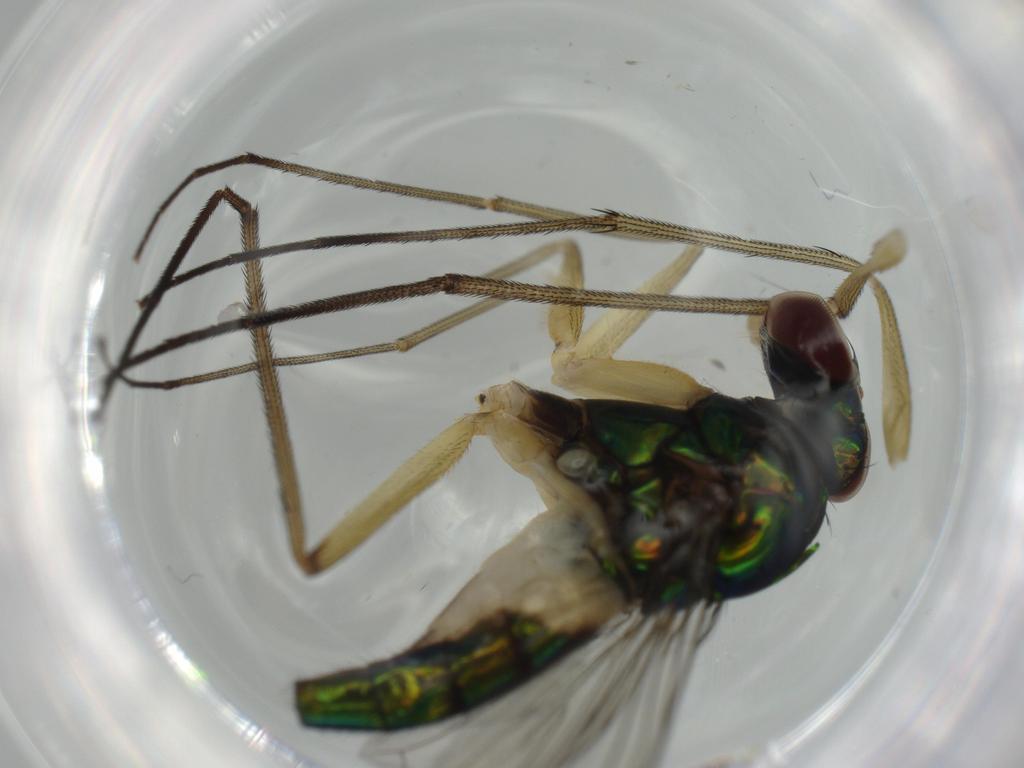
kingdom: Animalia
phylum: Arthropoda
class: Insecta
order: Diptera
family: Dolichopodidae
